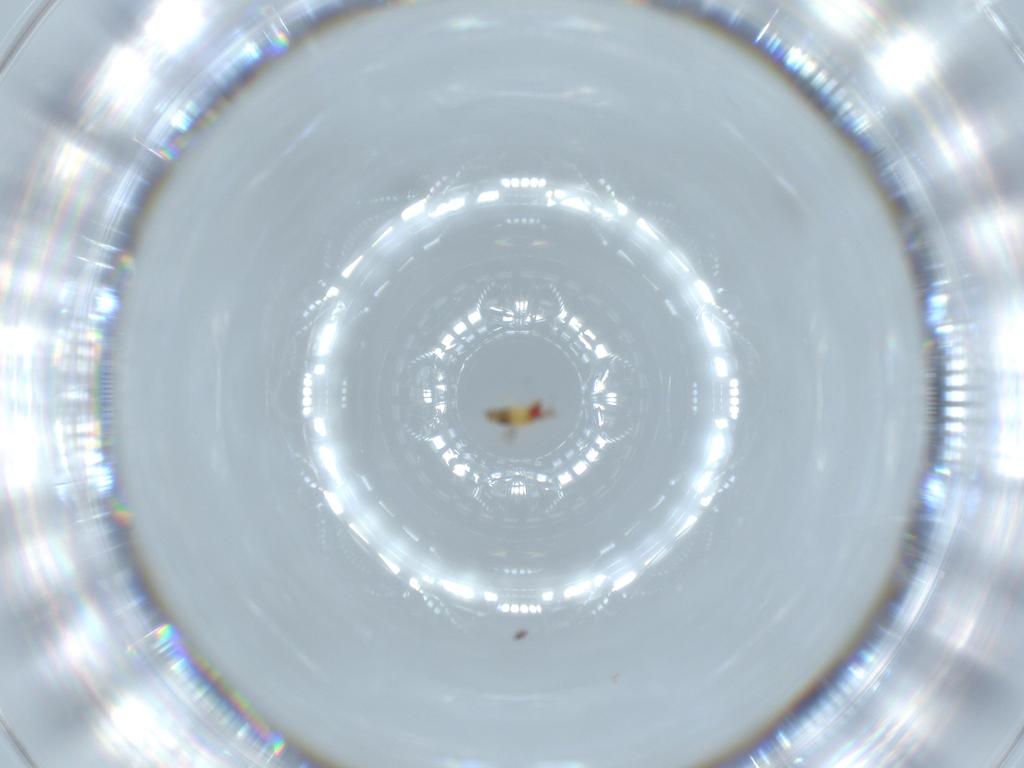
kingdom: Animalia
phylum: Arthropoda
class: Insecta
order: Hymenoptera
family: Trichogrammatidae
